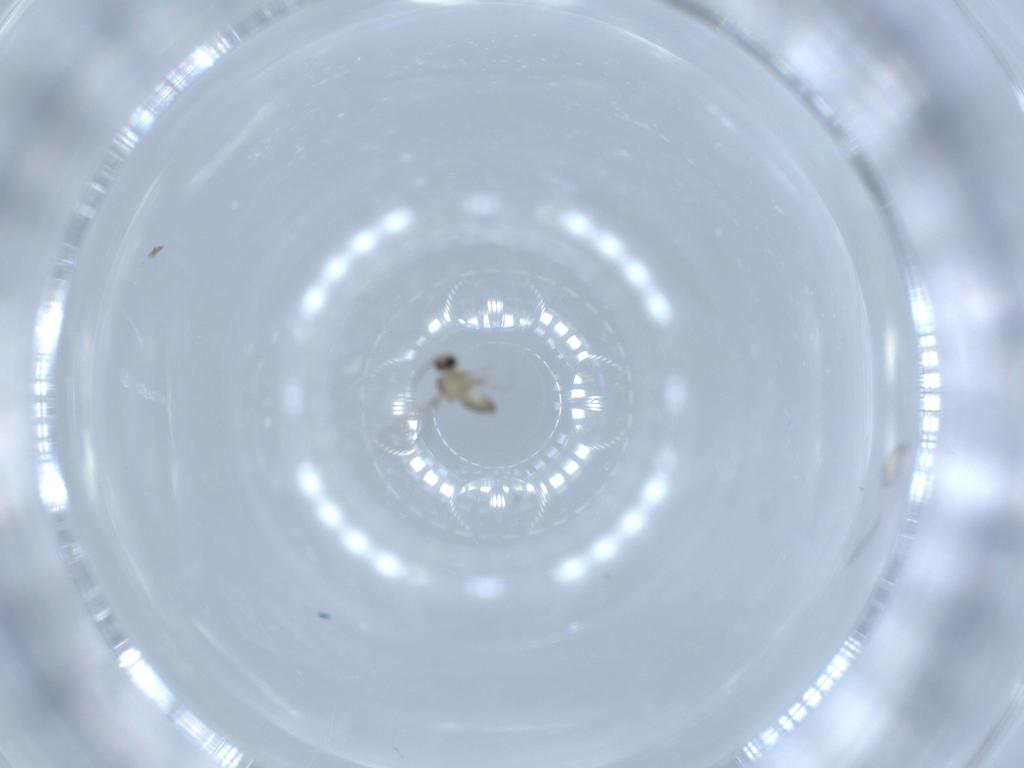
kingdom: Animalia
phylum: Arthropoda
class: Insecta
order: Diptera
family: Cecidomyiidae
